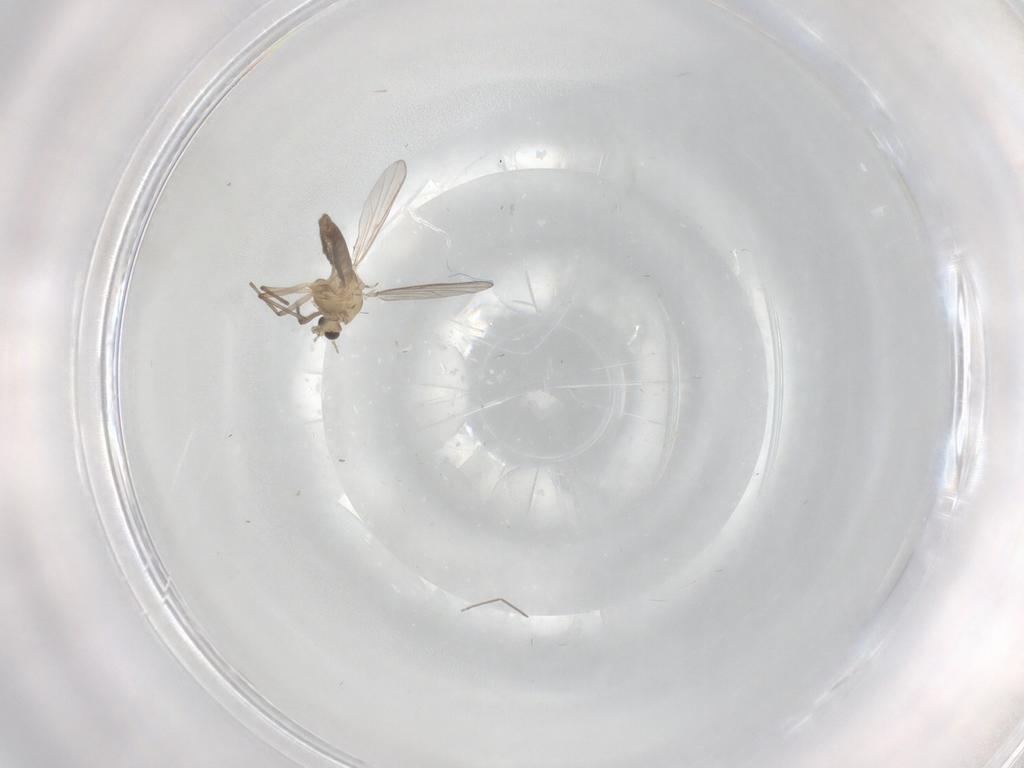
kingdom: Animalia
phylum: Arthropoda
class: Insecta
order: Diptera
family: Chironomidae
